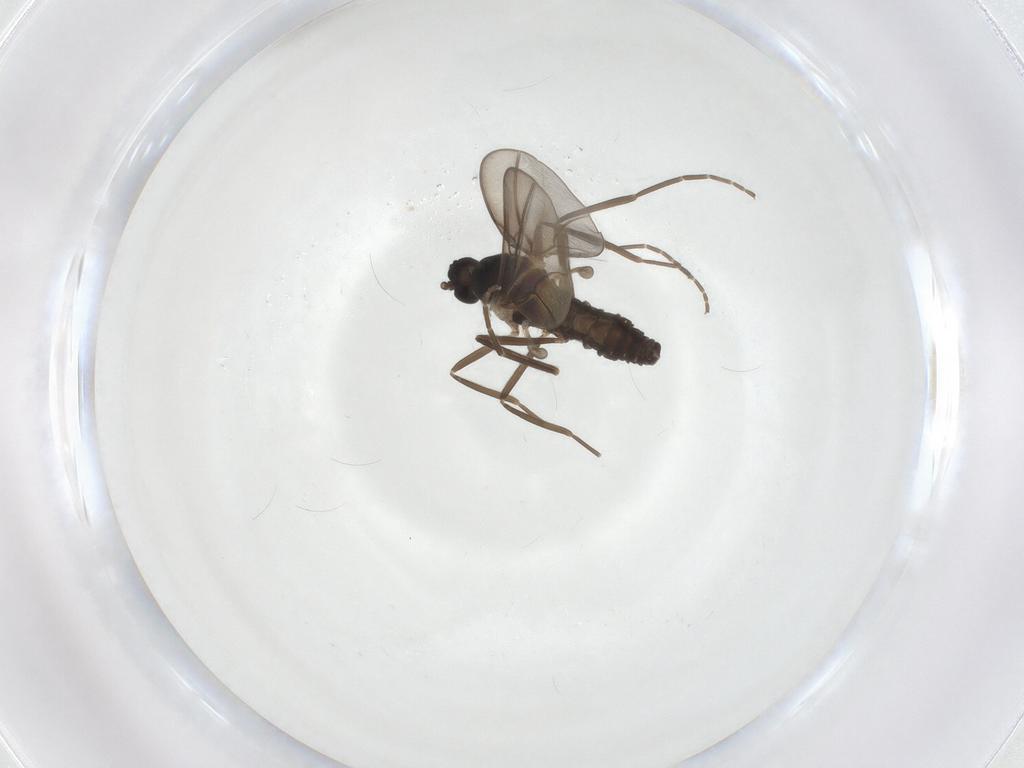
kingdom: Animalia
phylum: Arthropoda
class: Insecta
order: Diptera
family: Cecidomyiidae
